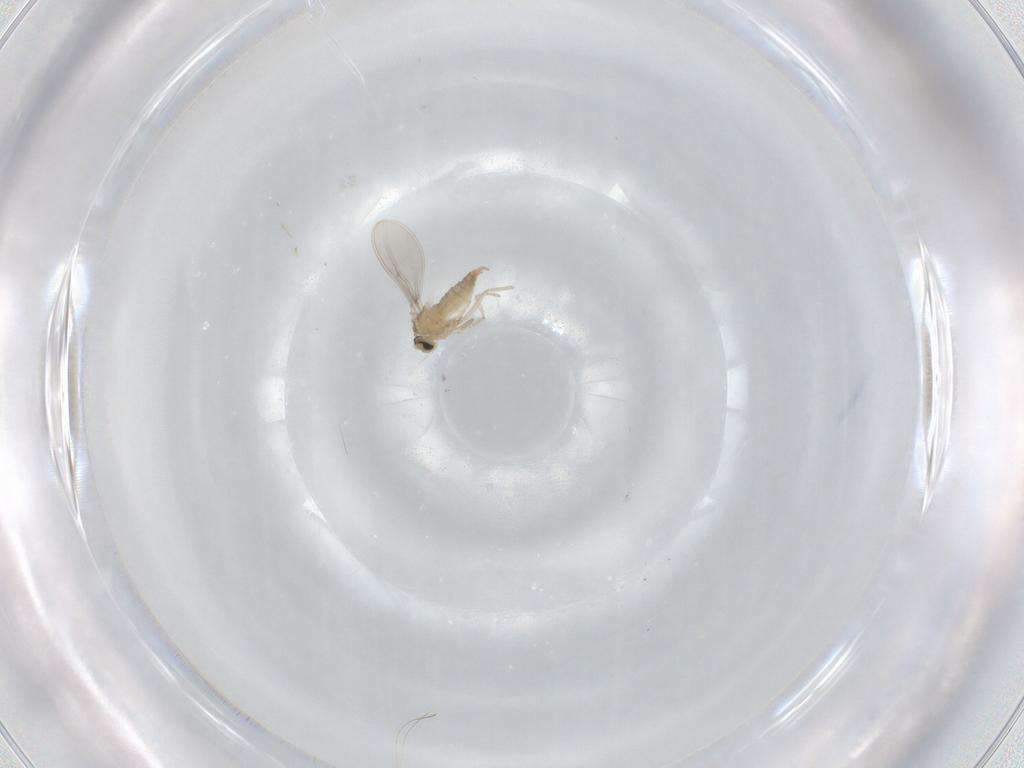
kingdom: Animalia
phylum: Arthropoda
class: Insecta
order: Diptera
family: Cecidomyiidae
